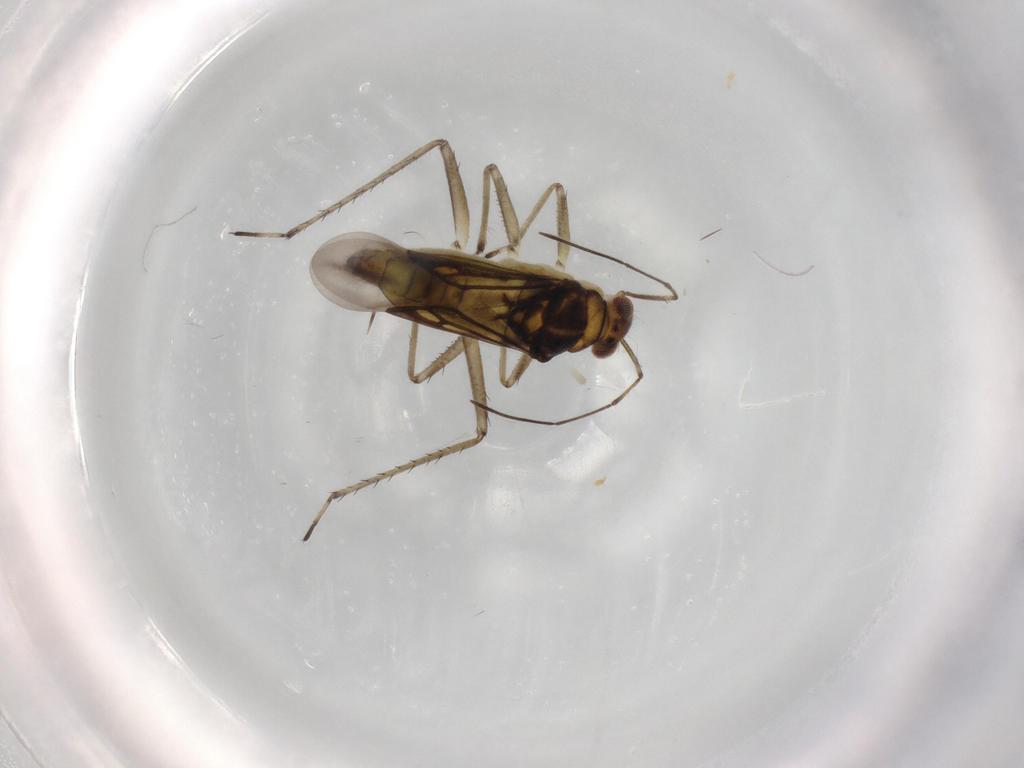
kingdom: Animalia
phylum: Arthropoda
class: Insecta
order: Hemiptera
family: Mesoveliidae
